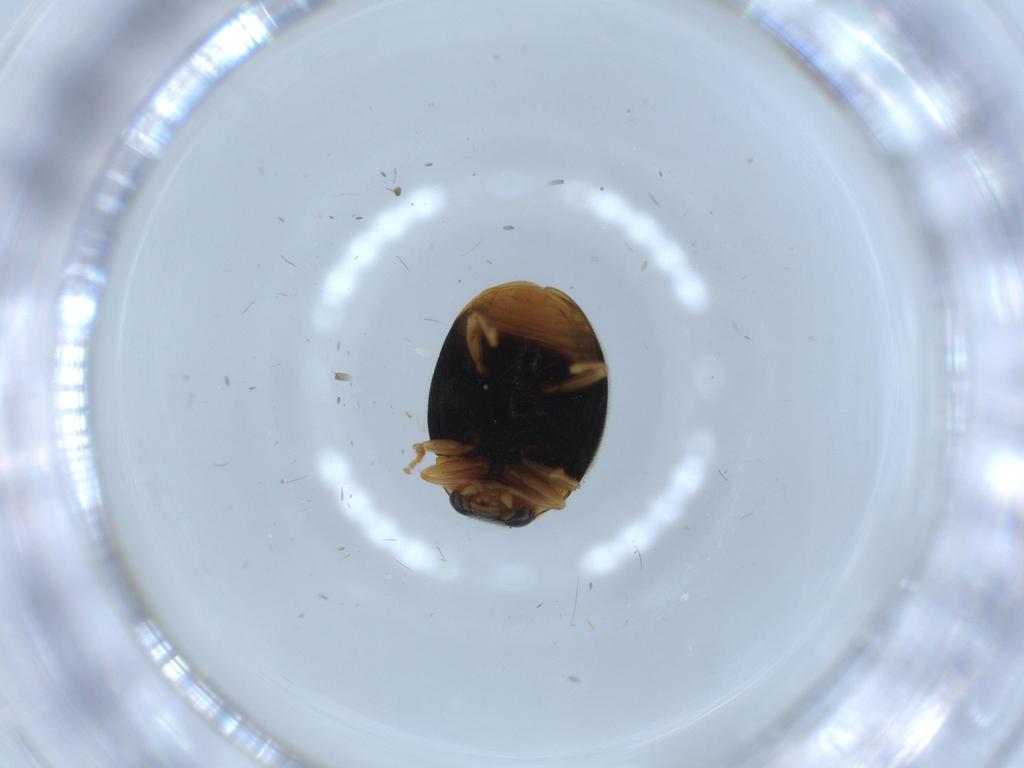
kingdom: Animalia
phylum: Arthropoda
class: Insecta
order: Coleoptera
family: Coccinellidae
